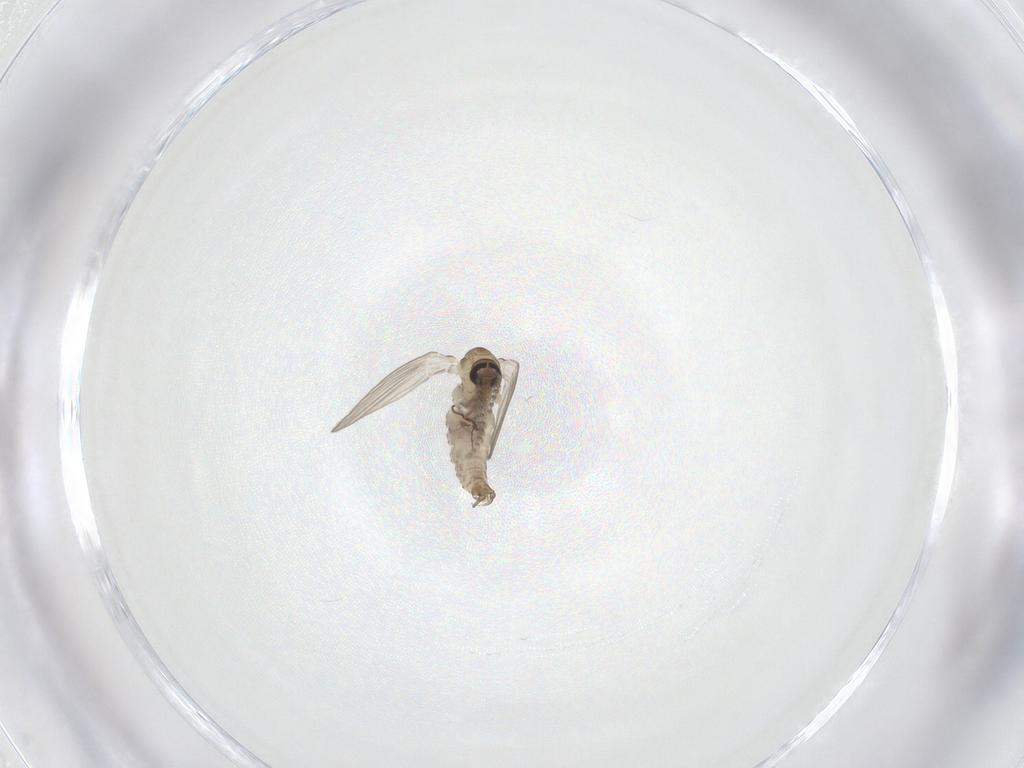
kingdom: Animalia
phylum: Arthropoda
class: Insecta
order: Diptera
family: Psychodidae
